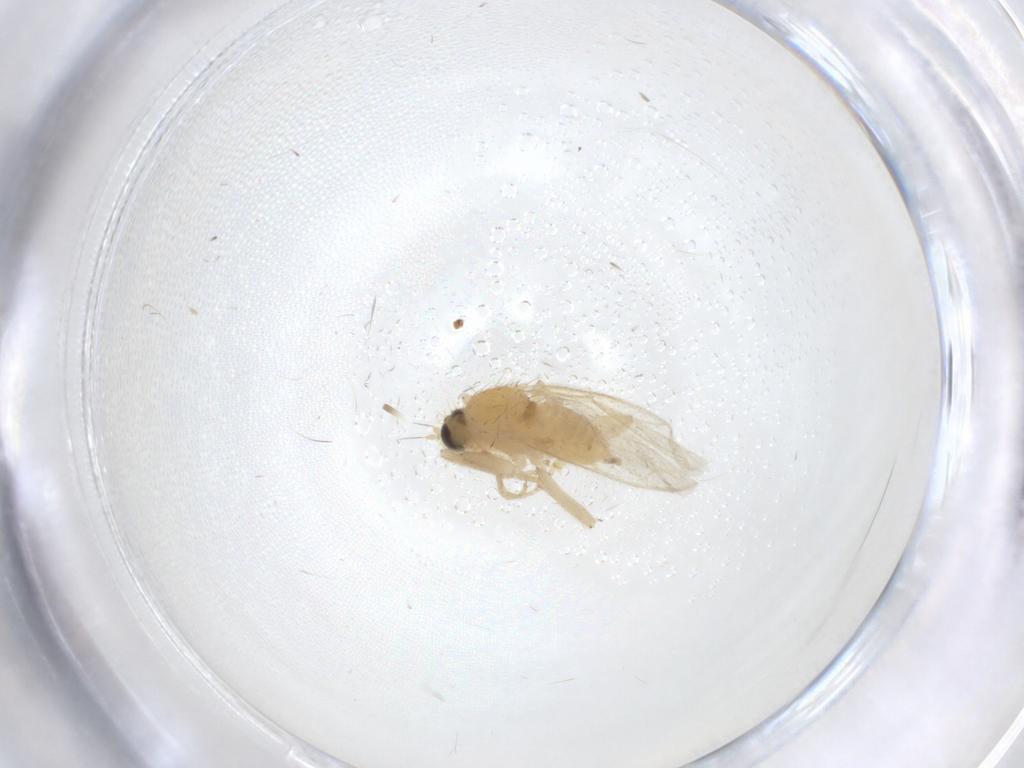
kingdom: Animalia
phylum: Arthropoda
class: Insecta
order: Diptera
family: Hybotidae
